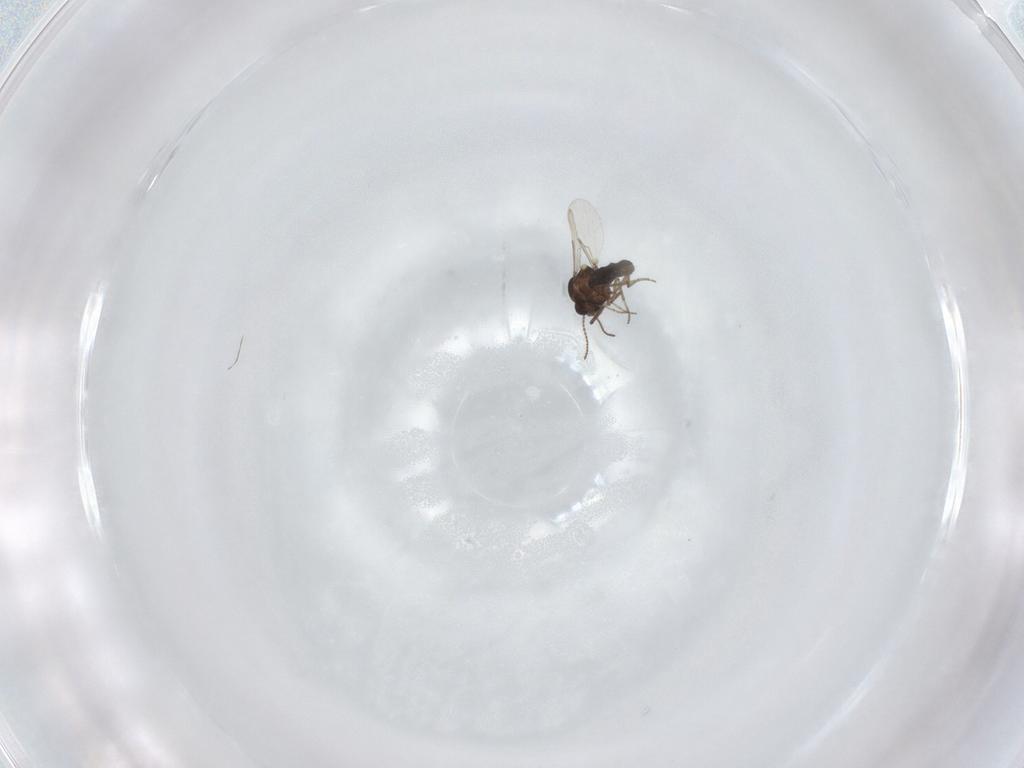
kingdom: Animalia
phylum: Arthropoda
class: Insecta
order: Diptera
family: Ceratopogonidae
